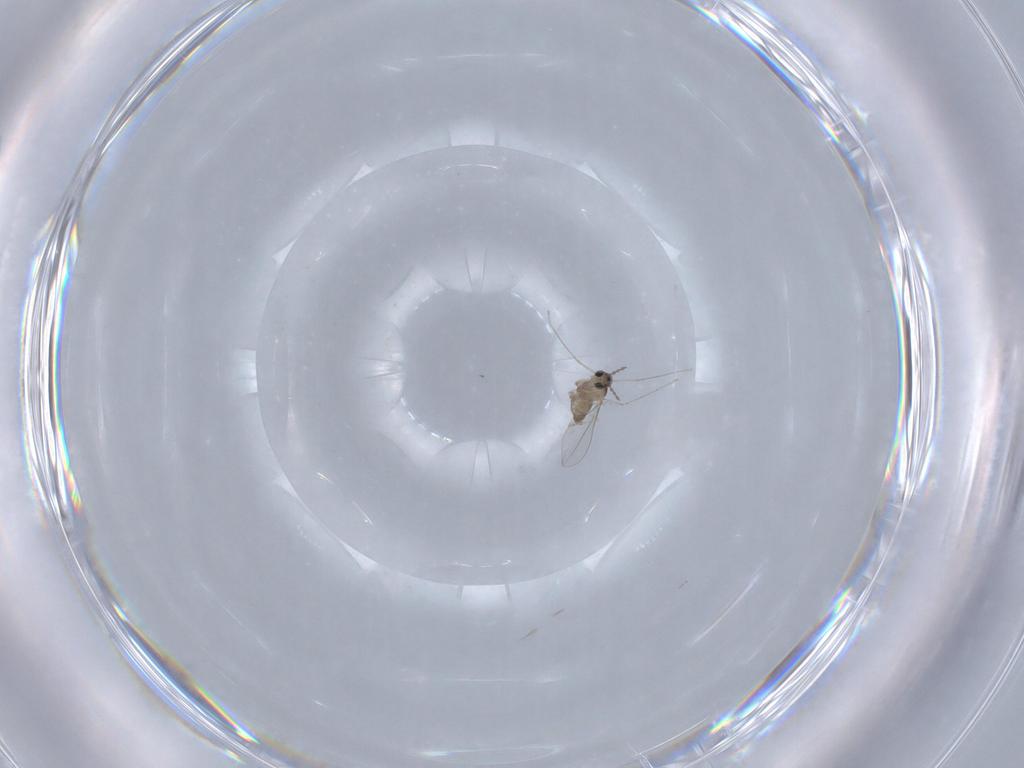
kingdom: Animalia
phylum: Arthropoda
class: Insecta
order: Diptera
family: Cecidomyiidae
